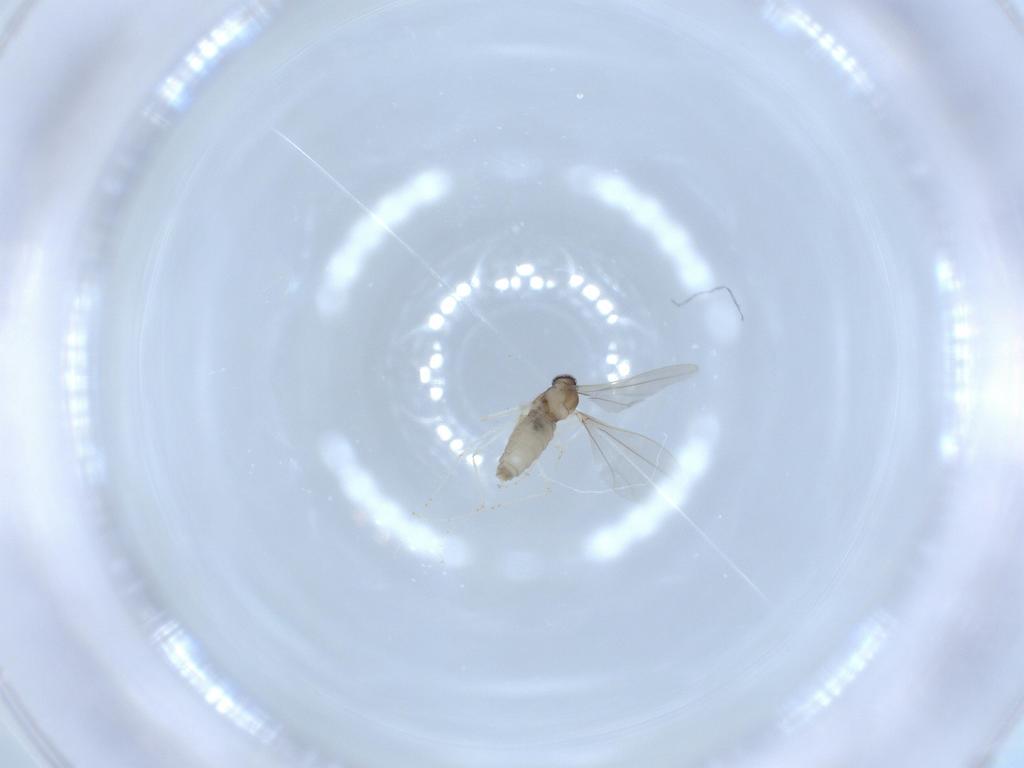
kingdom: Animalia
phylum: Arthropoda
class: Insecta
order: Diptera
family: Cecidomyiidae
